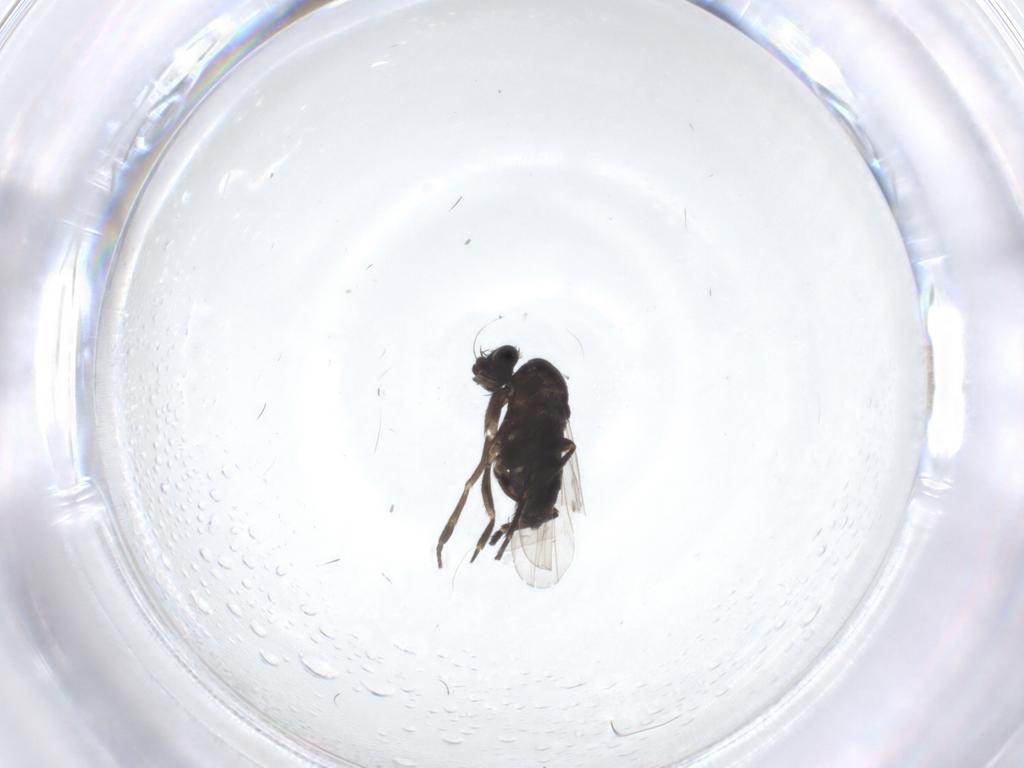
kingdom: Animalia
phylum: Arthropoda
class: Insecta
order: Diptera
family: Phoridae
